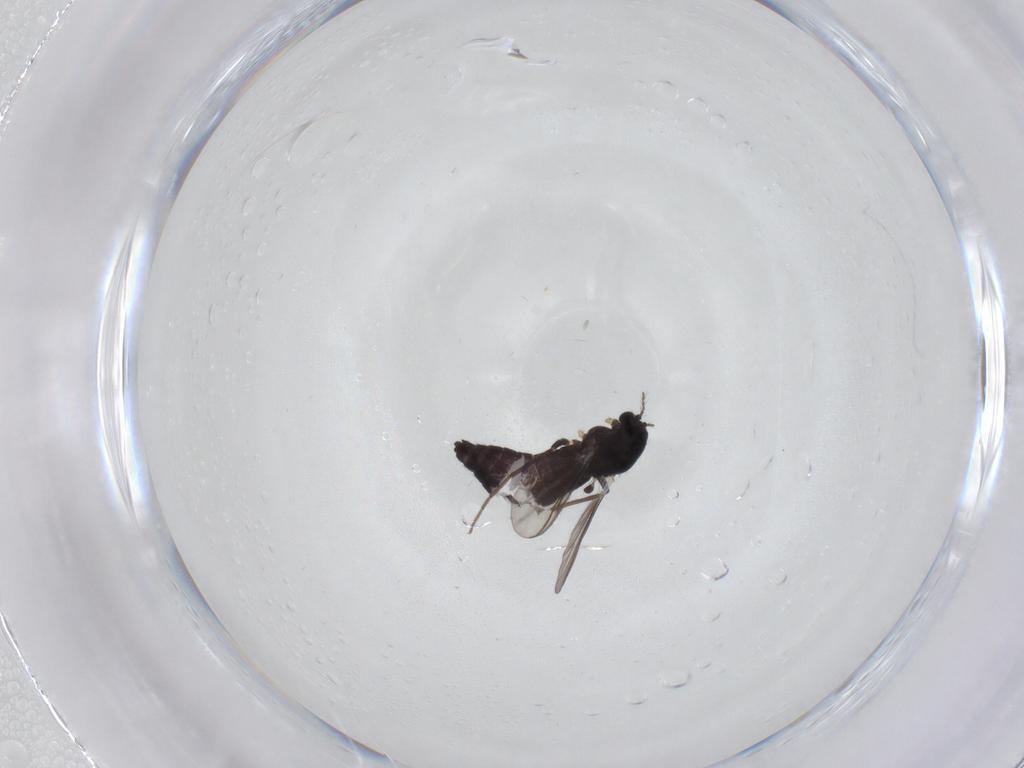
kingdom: Animalia
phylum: Arthropoda
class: Insecta
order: Diptera
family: Chironomidae
